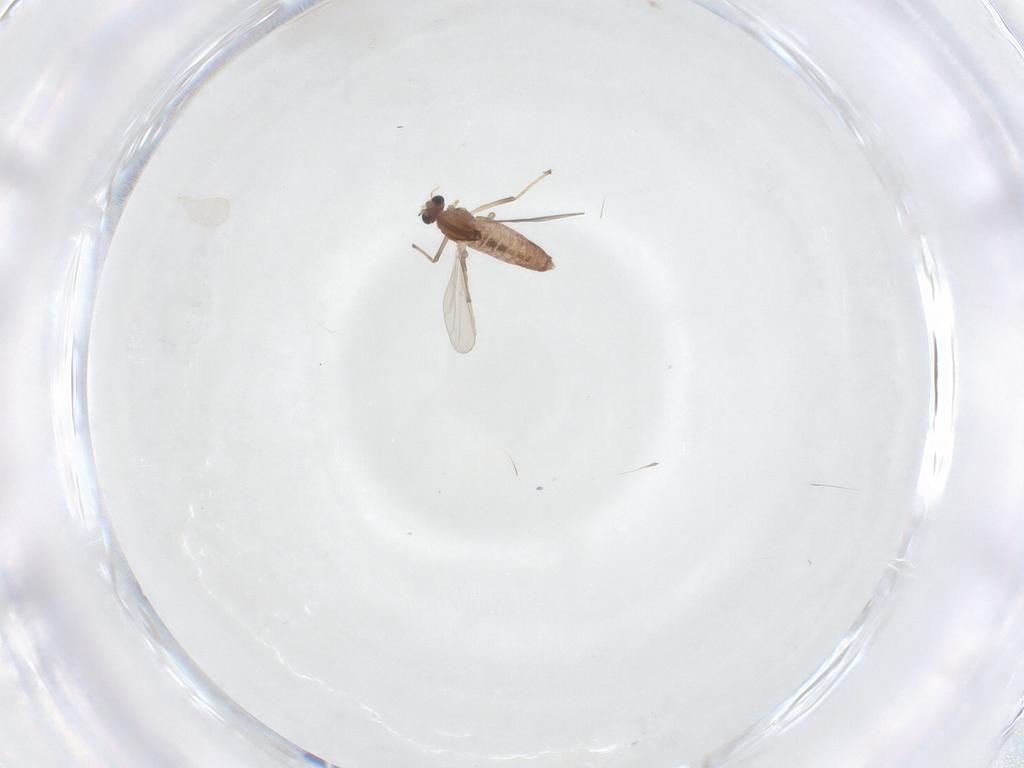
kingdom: Animalia
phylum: Arthropoda
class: Insecta
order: Diptera
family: Chironomidae
